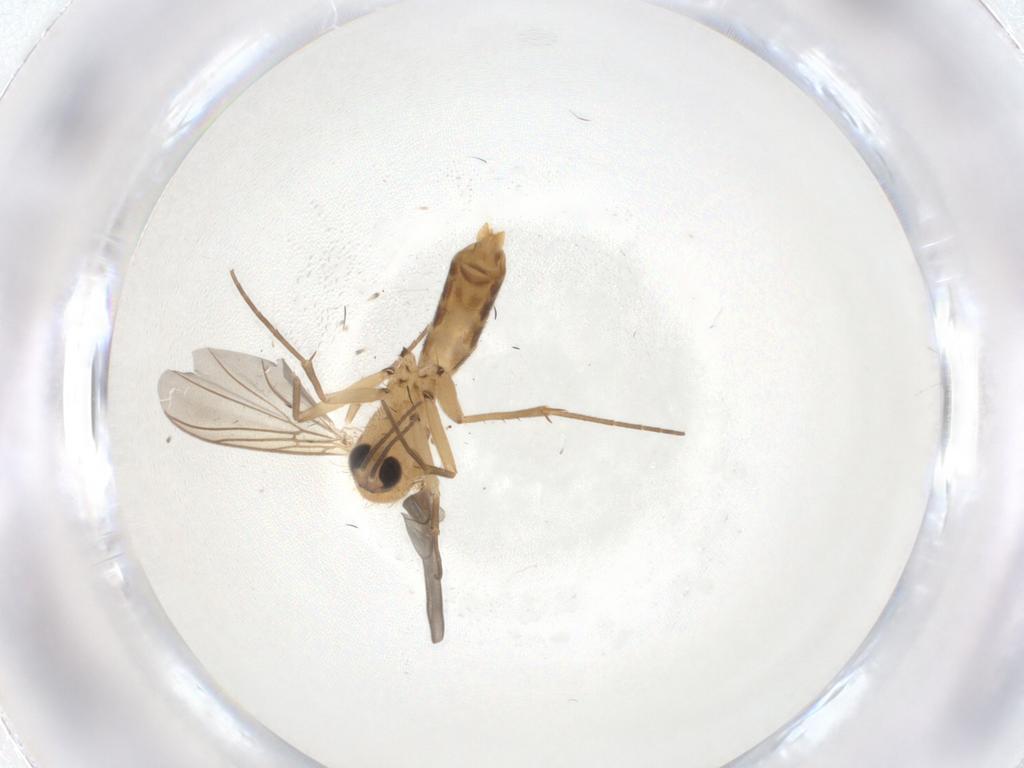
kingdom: Animalia
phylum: Arthropoda
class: Insecta
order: Diptera
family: Mycetophilidae
